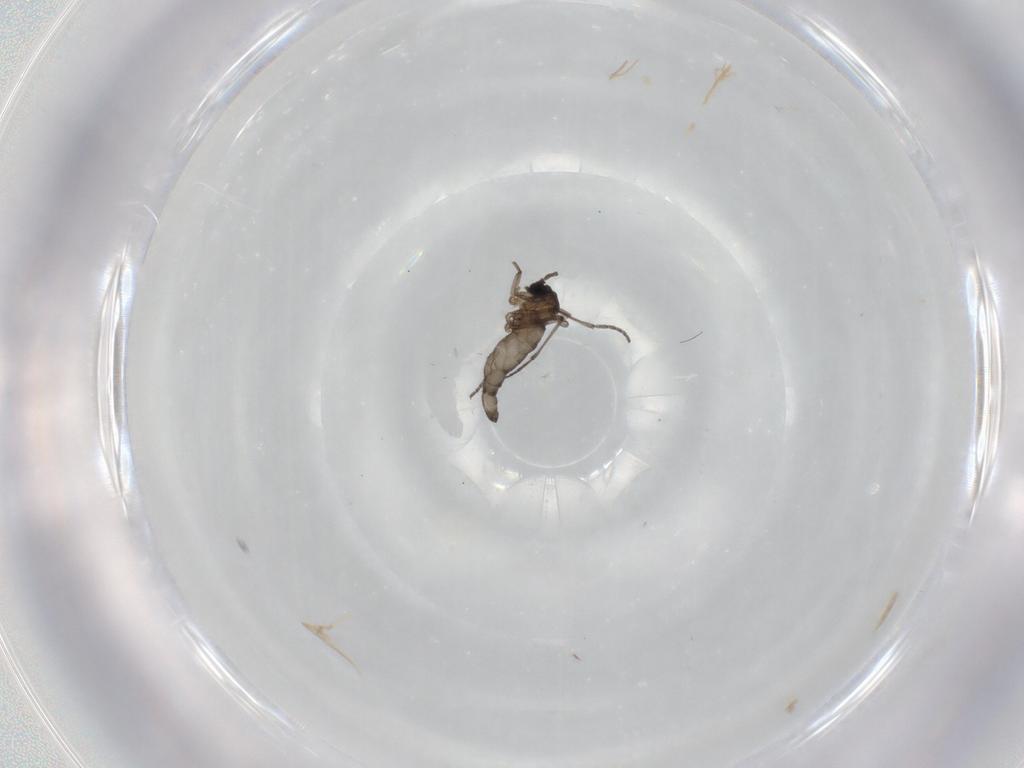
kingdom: Animalia
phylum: Arthropoda
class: Insecta
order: Diptera
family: Sciaridae
